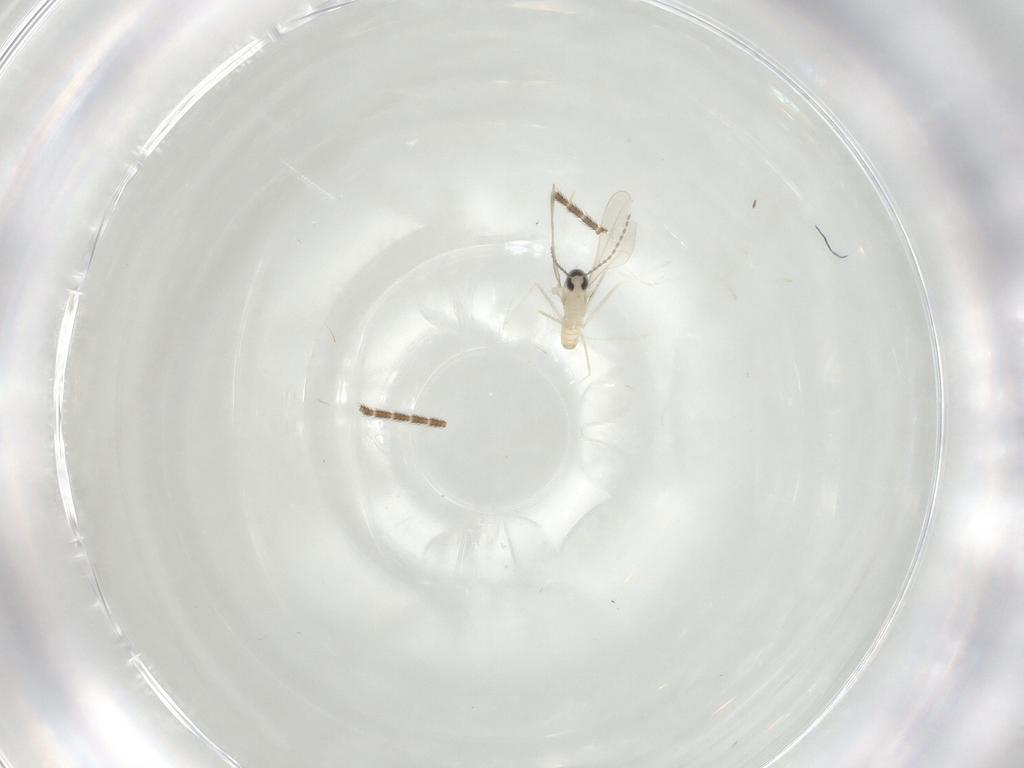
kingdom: Animalia
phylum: Arthropoda
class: Insecta
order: Diptera
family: Cecidomyiidae
